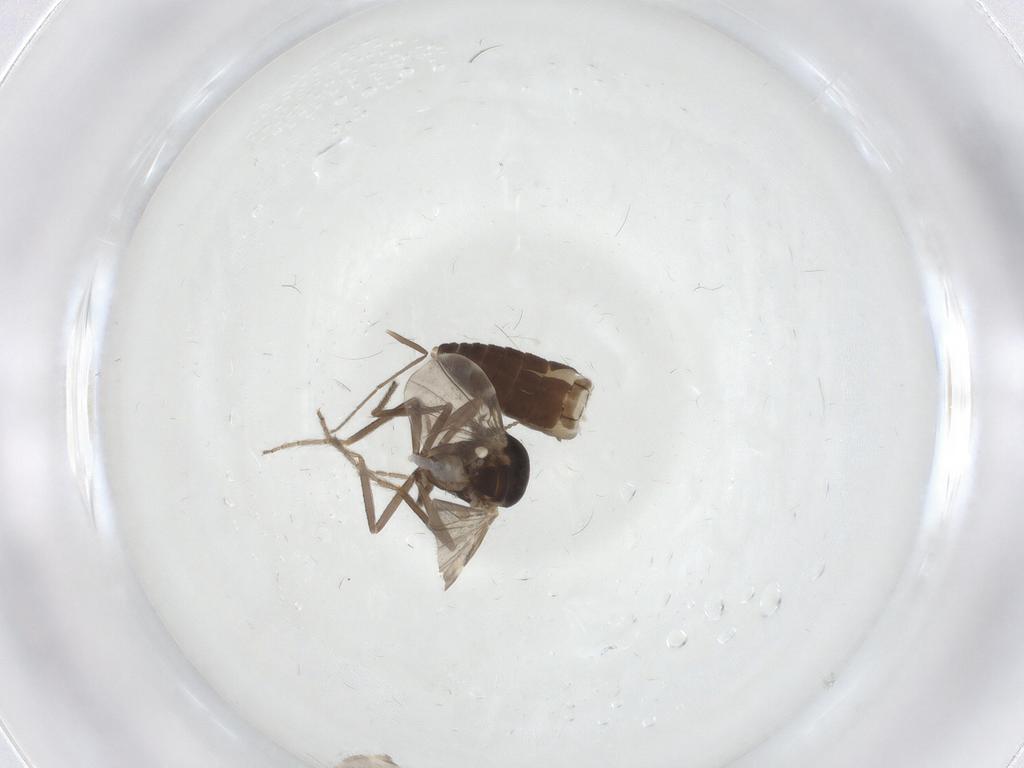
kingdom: Animalia
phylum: Arthropoda
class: Insecta
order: Diptera
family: Ceratopogonidae
